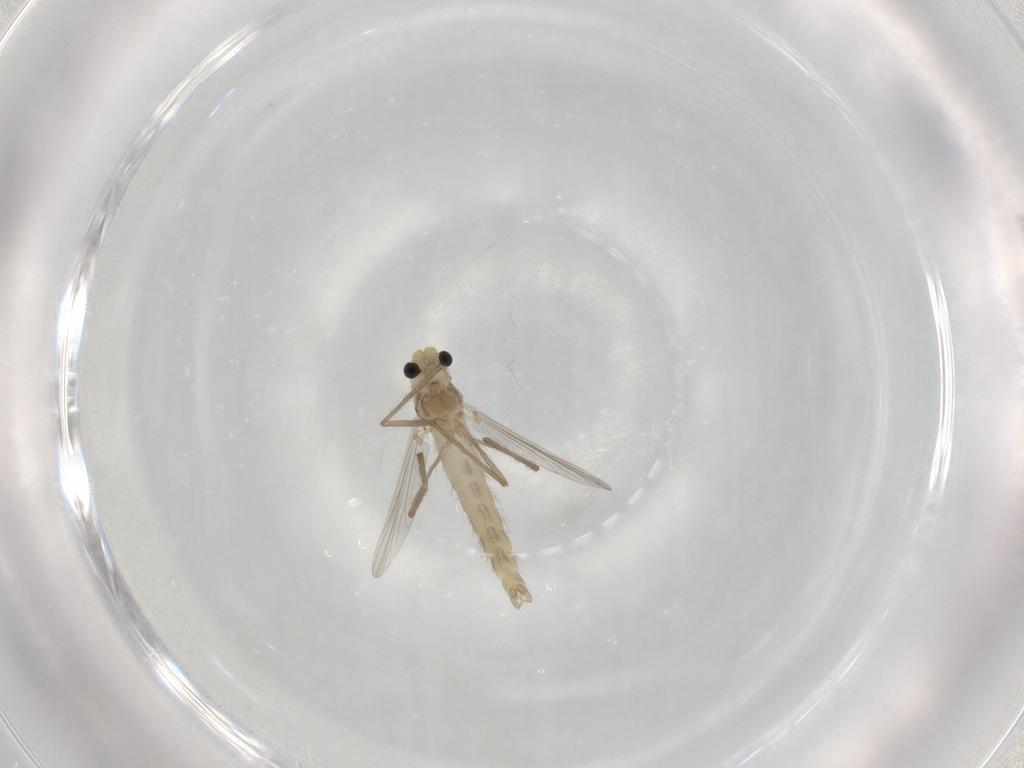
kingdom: Animalia
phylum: Arthropoda
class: Insecta
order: Diptera
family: Chironomidae
